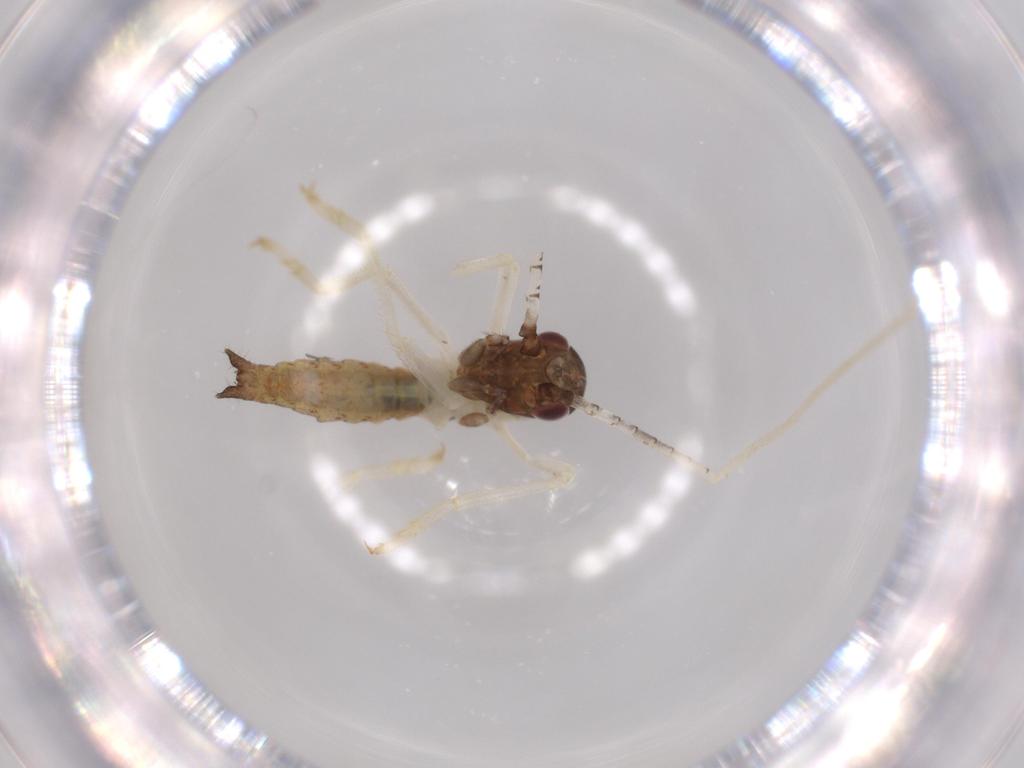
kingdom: Animalia
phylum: Arthropoda
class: Insecta
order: Orthoptera
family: Oecanthidae
